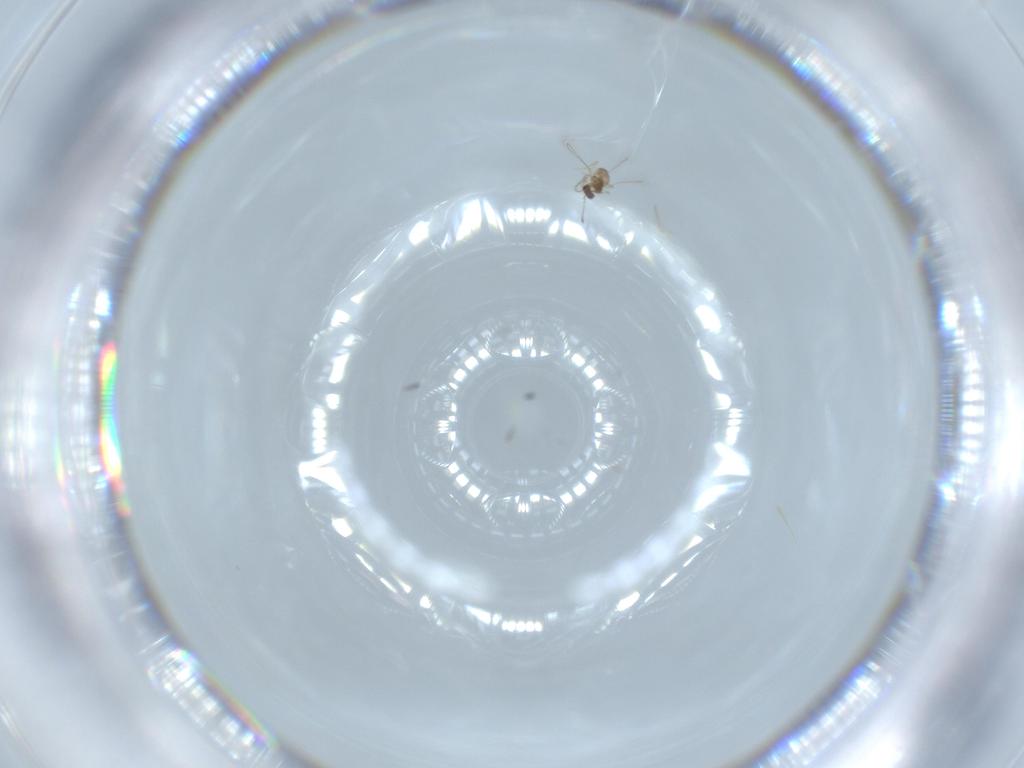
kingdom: Animalia
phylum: Arthropoda
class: Insecta
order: Hymenoptera
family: Mymaridae
